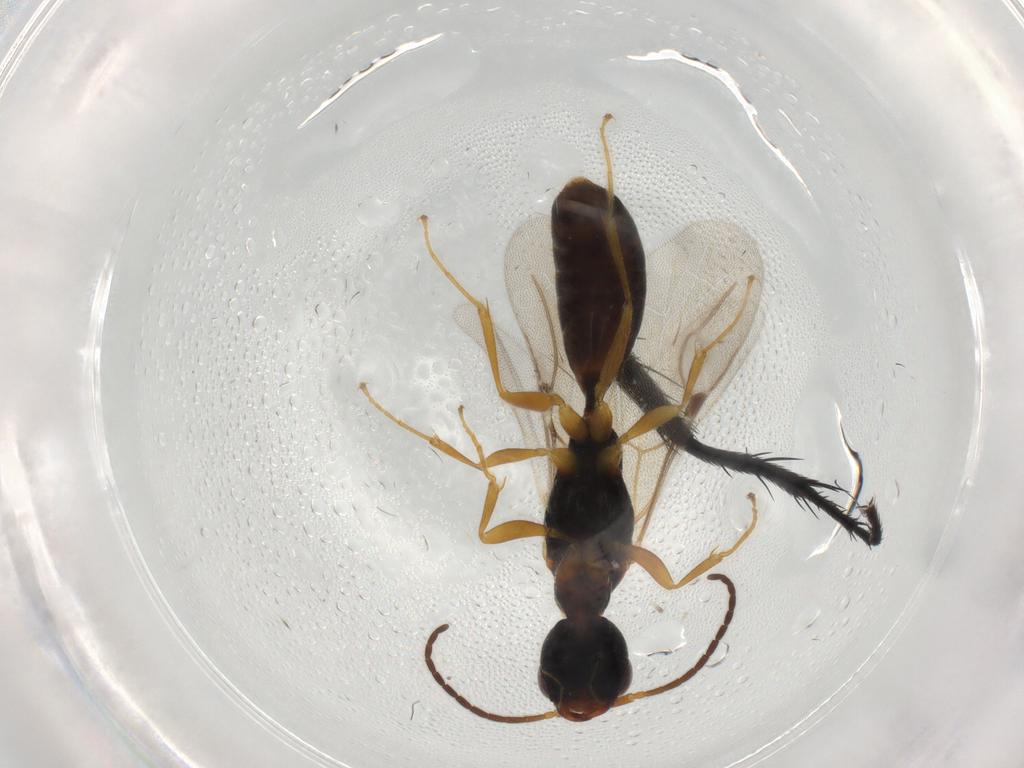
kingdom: Animalia
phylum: Arthropoda
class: Insecta
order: Hymenoptera
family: Bethylidae
